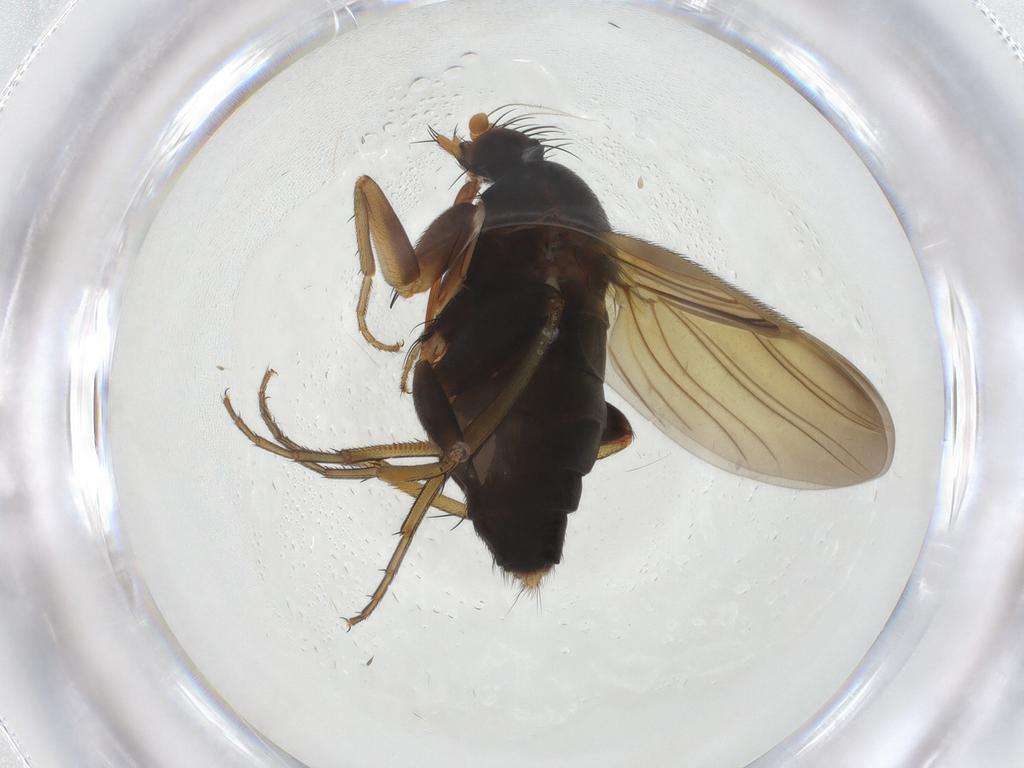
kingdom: Animalia
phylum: Arthropoda
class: Insecta
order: Diptera
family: Phoridae
